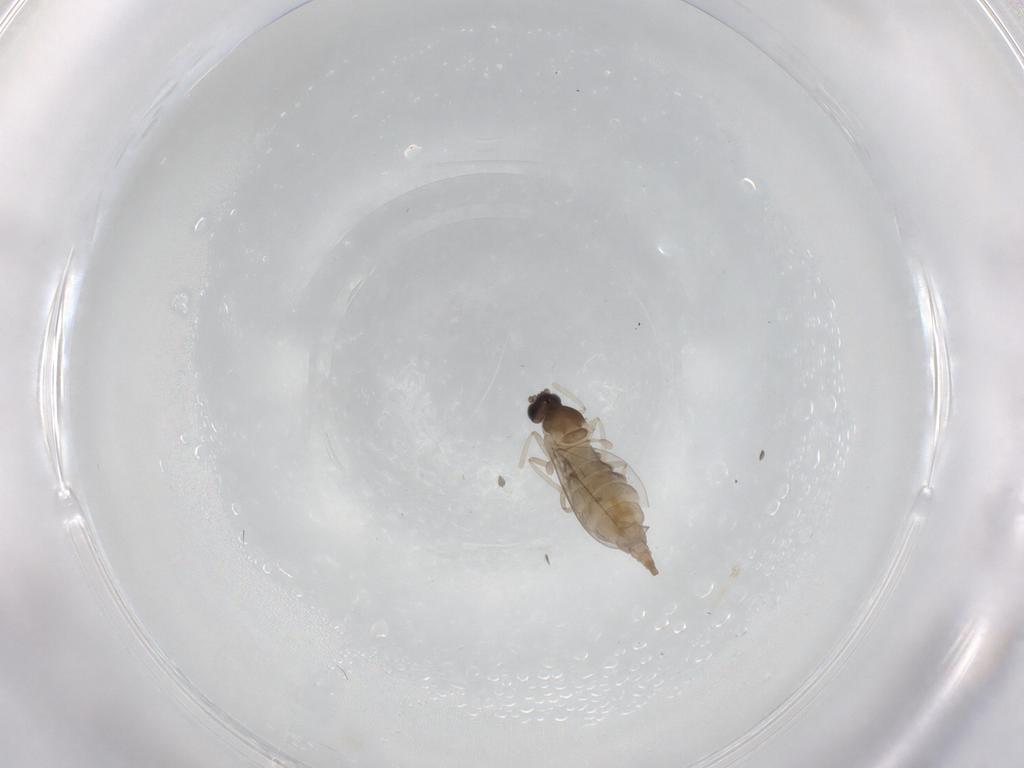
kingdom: Animalia
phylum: Arthropoda
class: Insecta
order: Diptera
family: Cecidomyiidae
